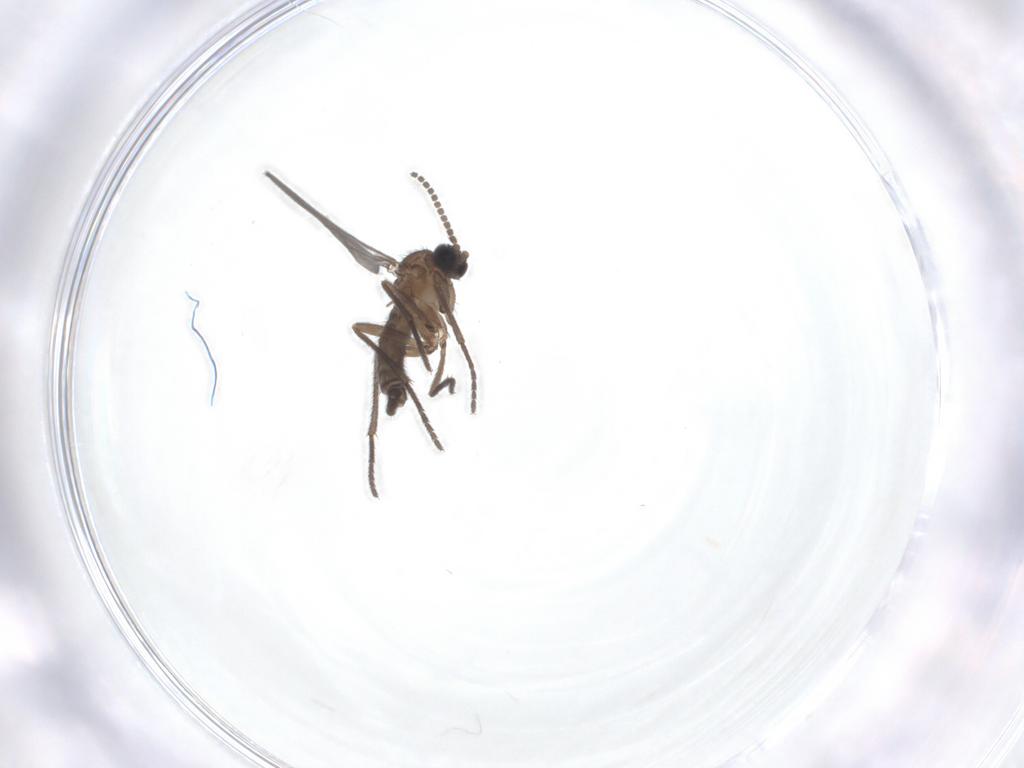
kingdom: Animalia
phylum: Arthropoda
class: Insecta
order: Diptera
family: Sciaridae
